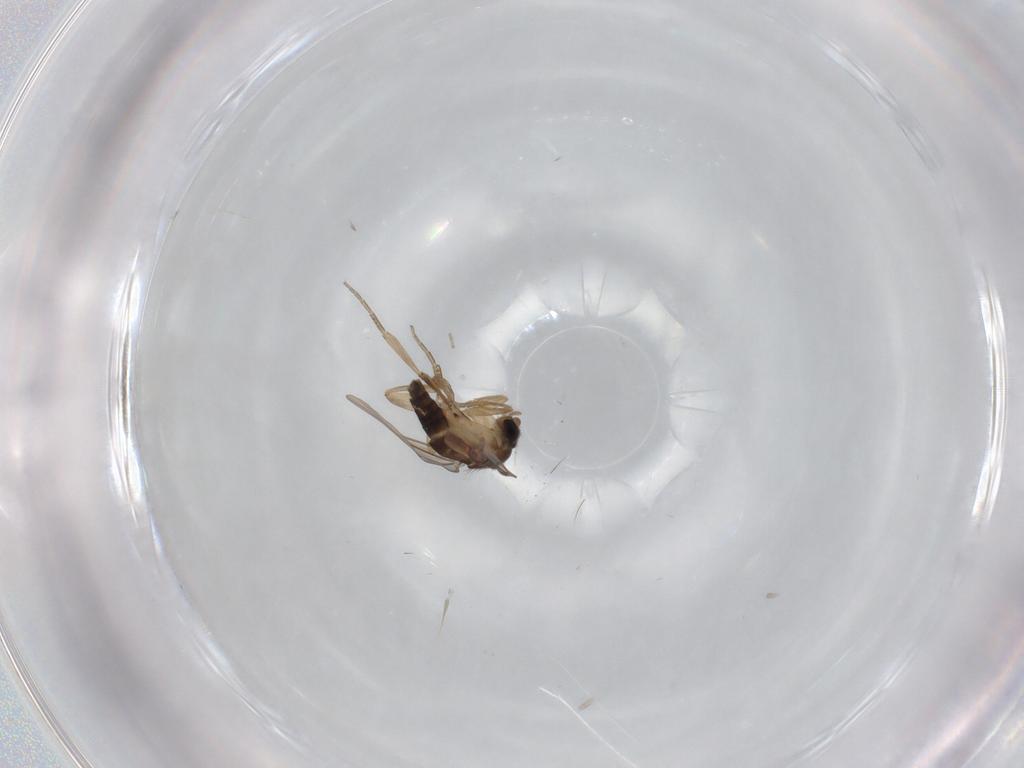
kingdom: Animalia
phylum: Arthropoda
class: Insecta
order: Diptera
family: Phoridae
